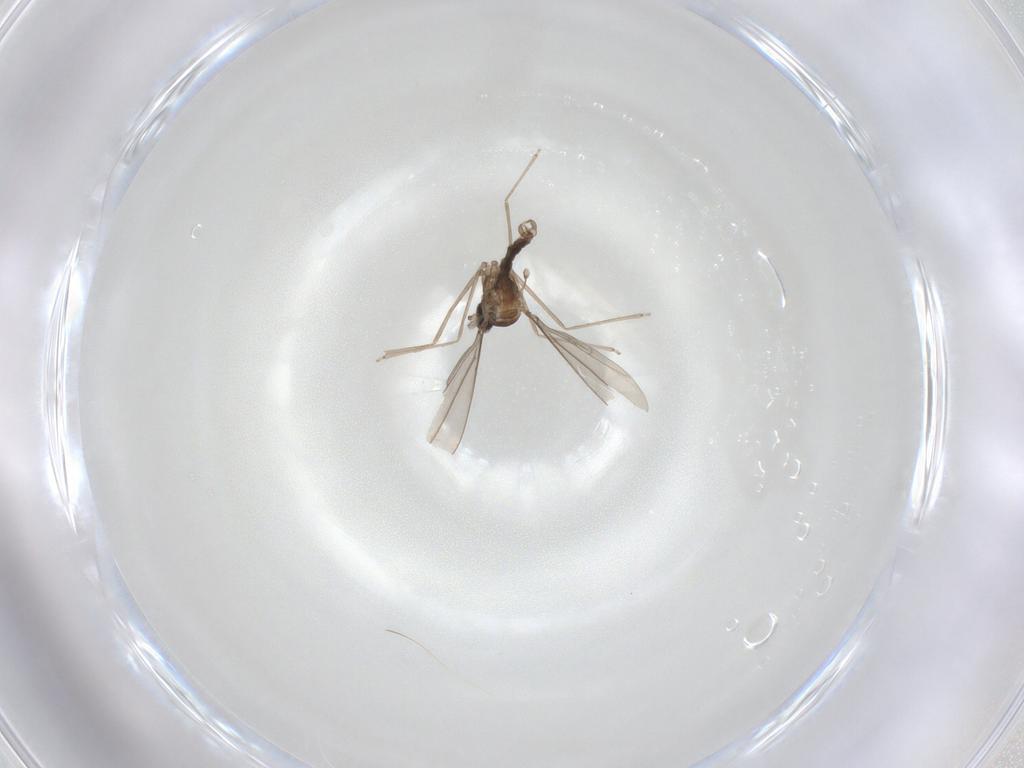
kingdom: Animalia
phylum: Arthropoda
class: Insecta
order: Diptera
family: Cecidomyiidae
